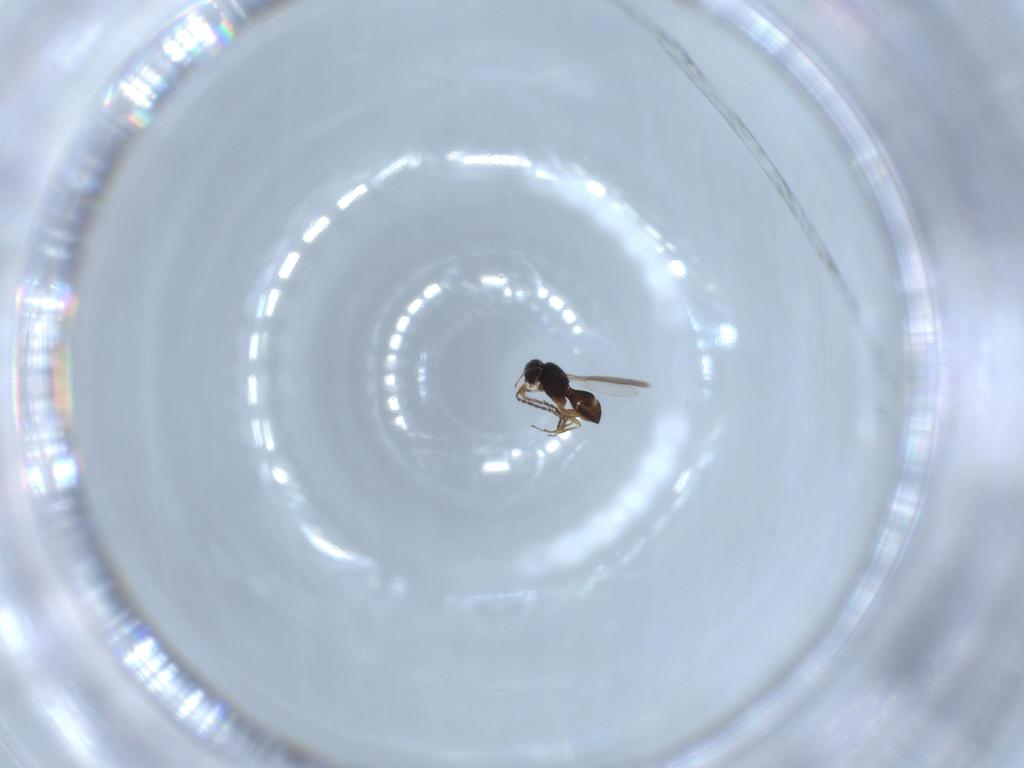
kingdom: Animalia
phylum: Arthropoda
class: Insecta
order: Hymenoptera
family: Scelionidae
